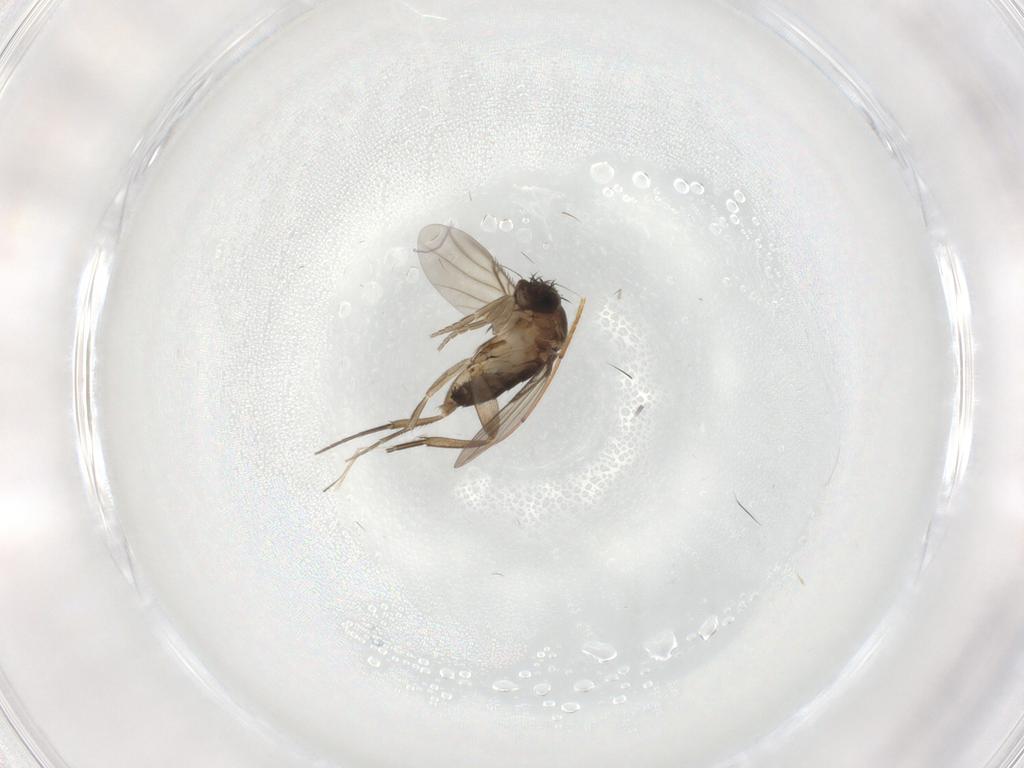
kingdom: Animalia
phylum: Arthropoda
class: Insecta
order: Diptera
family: Phoridae
